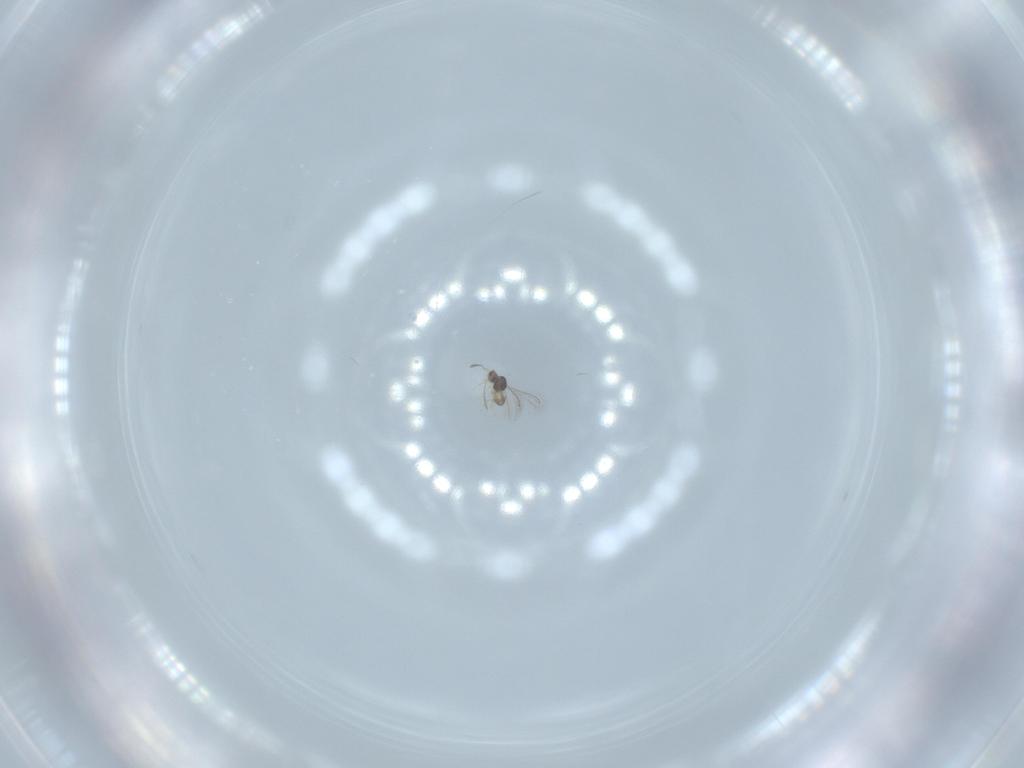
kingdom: Animalia
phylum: Arthropoda
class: Insecta
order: Hymenoptera
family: Mymaridae
